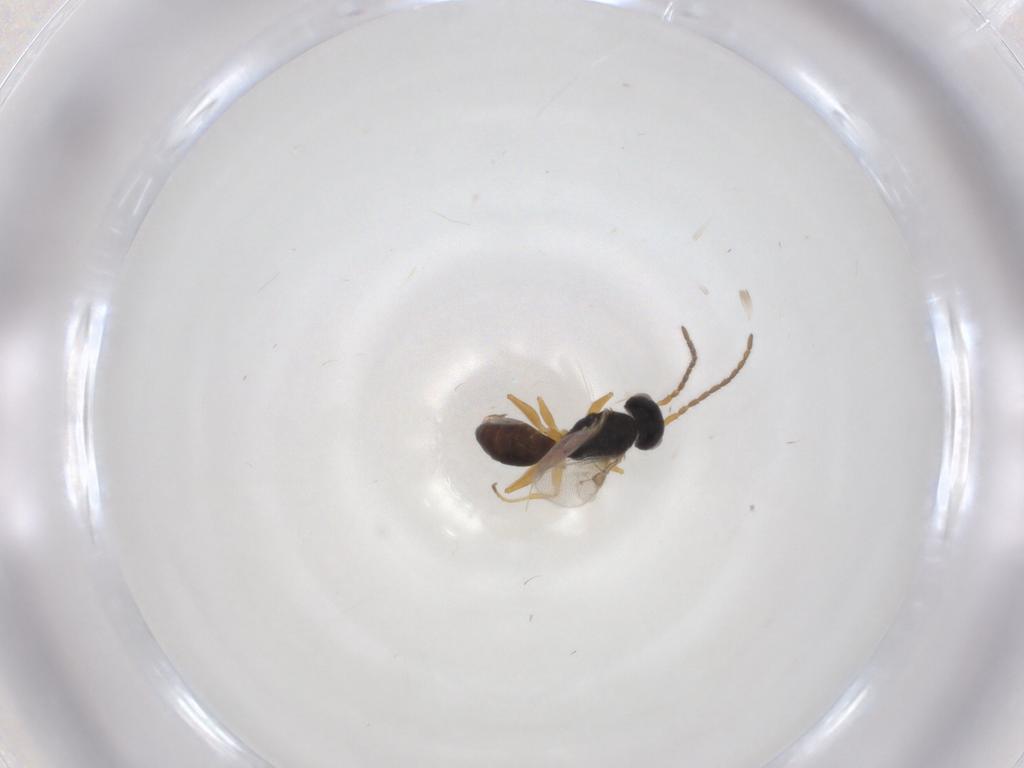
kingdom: Animalia
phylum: Arthropoda
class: Insecta
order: Hymenoptera
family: Dryinidae
